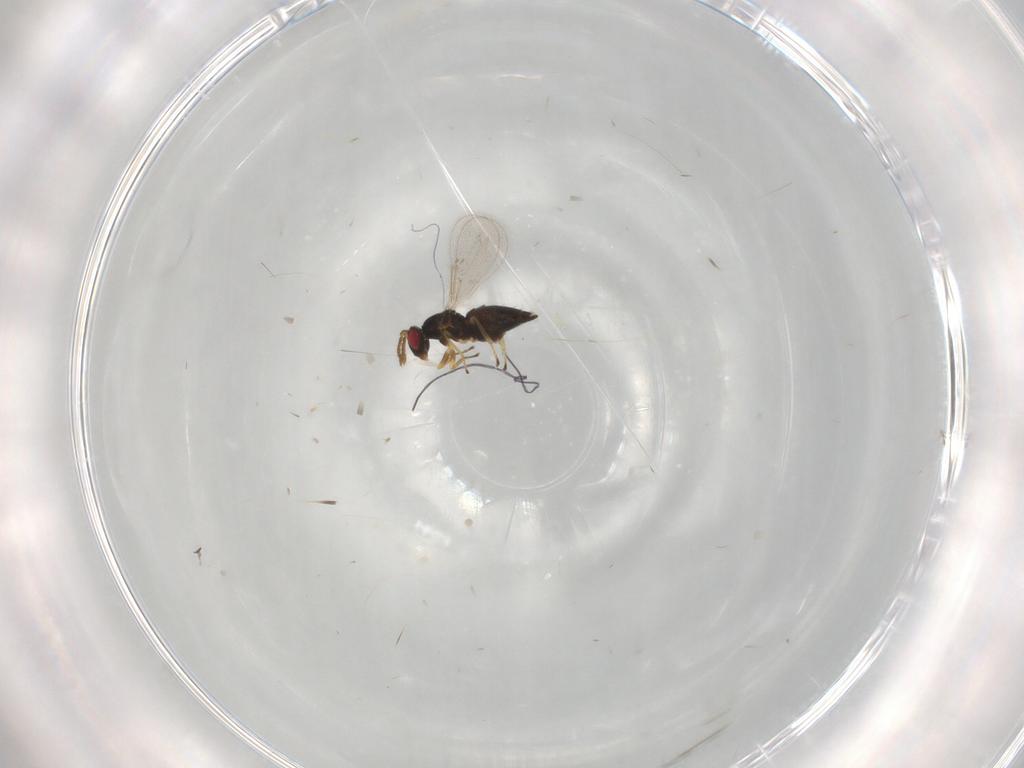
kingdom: Animalia
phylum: Arthropoda
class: Insecta
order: Hymenoptera
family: Eulophidae
